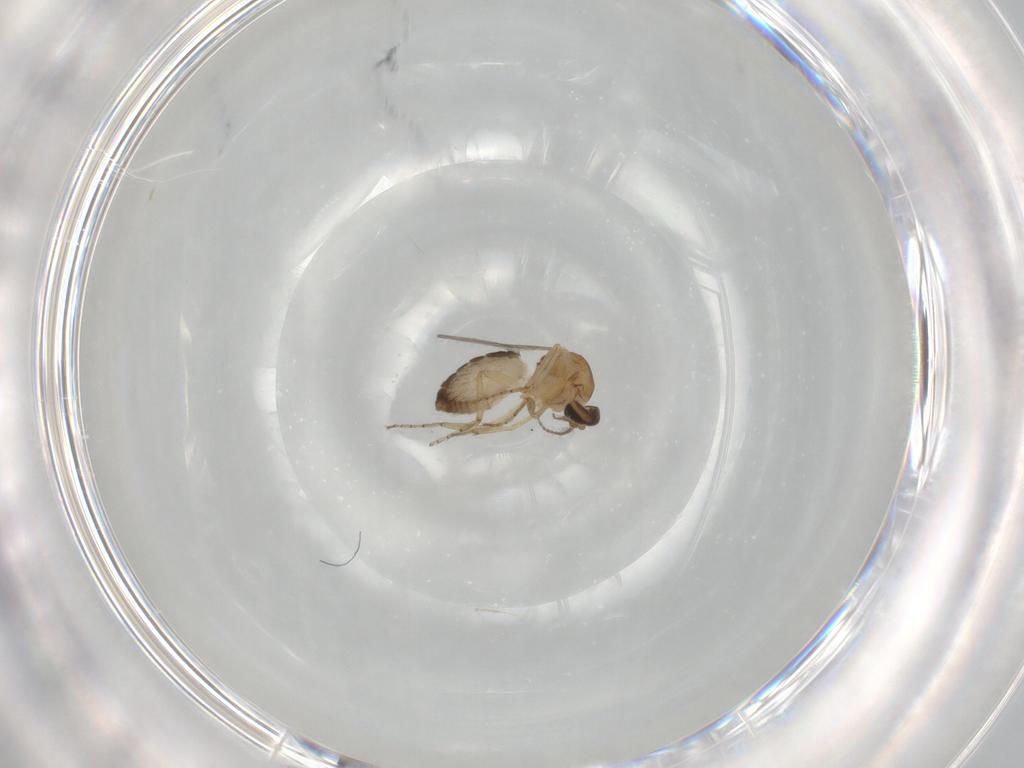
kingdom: Animalia
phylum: Arthropoda
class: Insecta
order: Diptera
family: Ceratopogonidae
